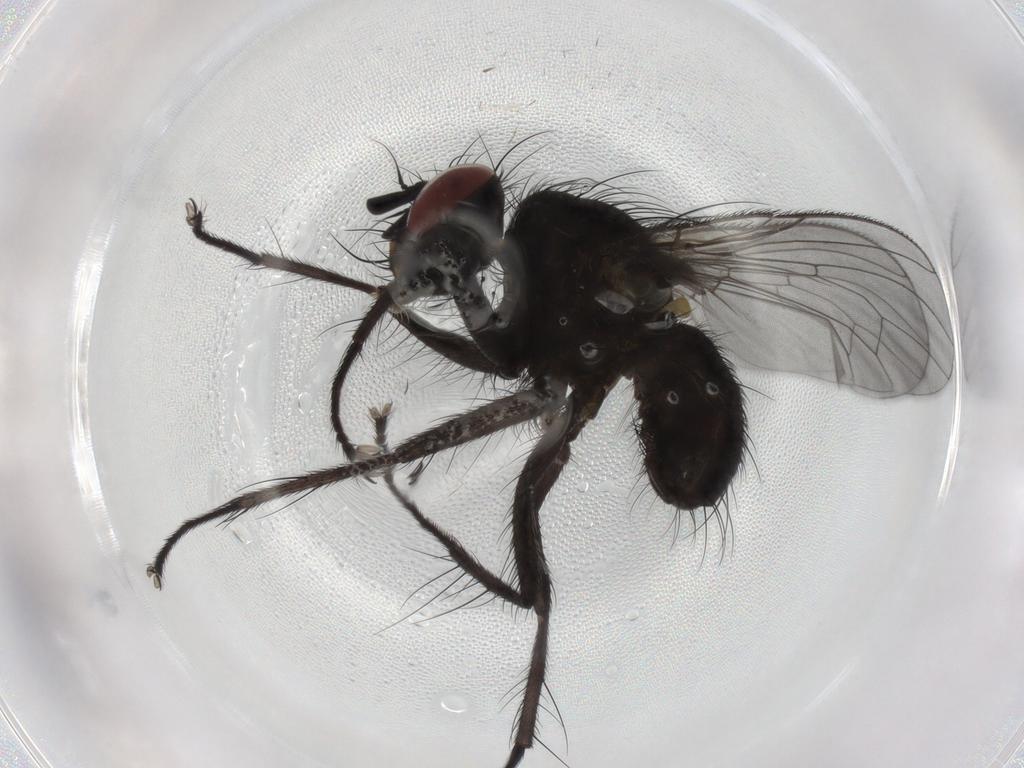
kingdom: Animalia
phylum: Arthropoda
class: Insecta
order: Diptera
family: Muscidae
